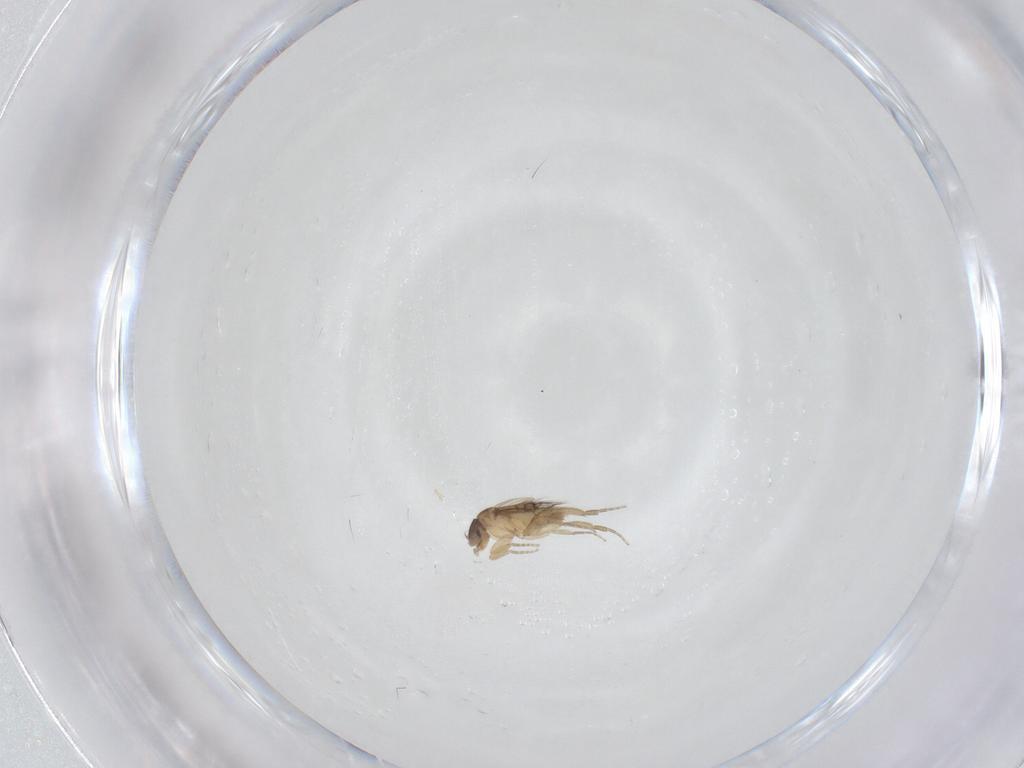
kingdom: Animalia
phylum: Arthropoda
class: Insecta
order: Diptera
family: Phoridae
